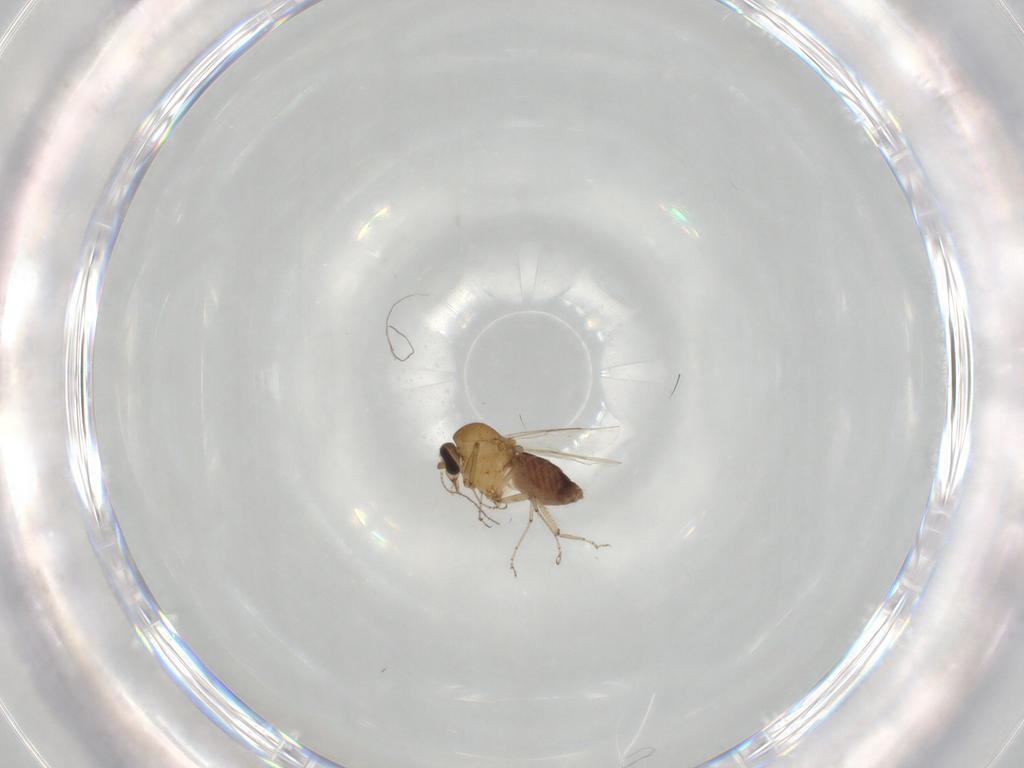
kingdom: Animalia
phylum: Arthropoda
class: Insecta
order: Diptera
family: Ceratopogonidae
